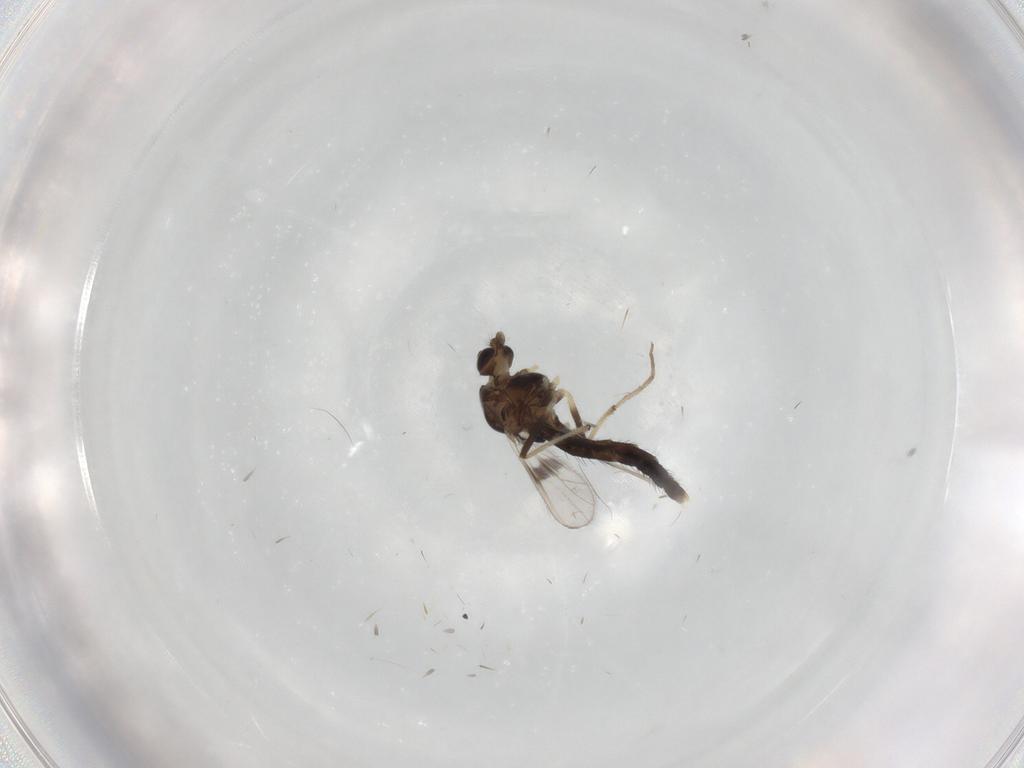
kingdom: Animalia
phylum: Arthropoda
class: Insecta
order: Diptera
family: Chironomidae
